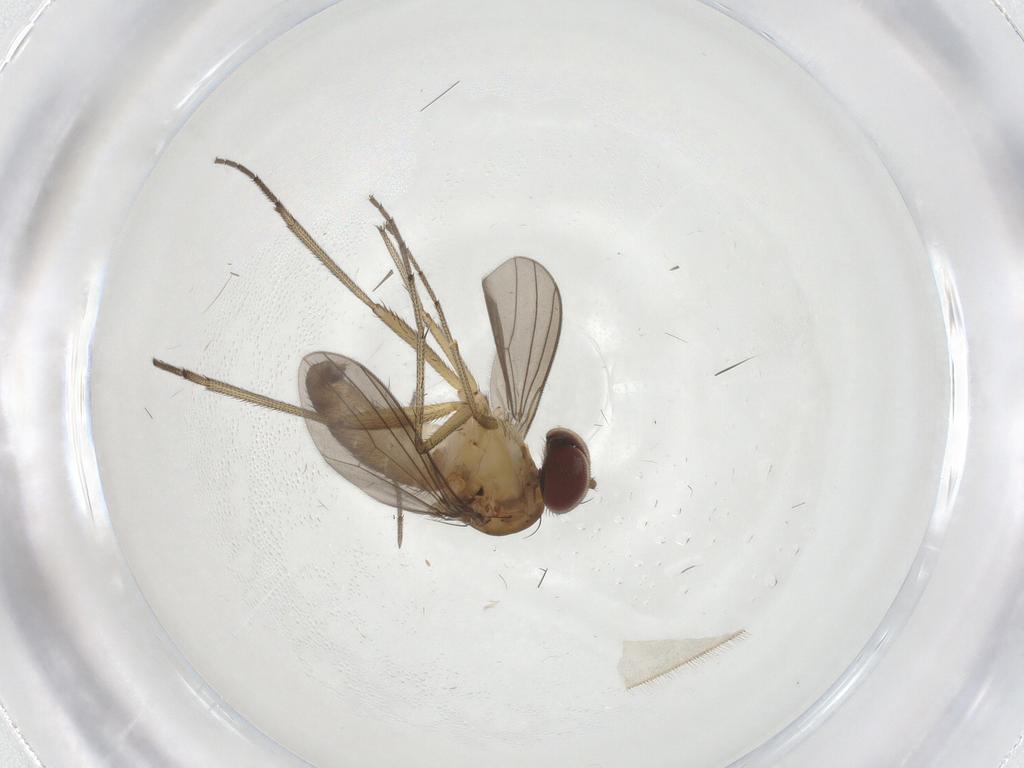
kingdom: Animalia
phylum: Arthropoda
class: Insecta
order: Diptera
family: Dolichopodidae
